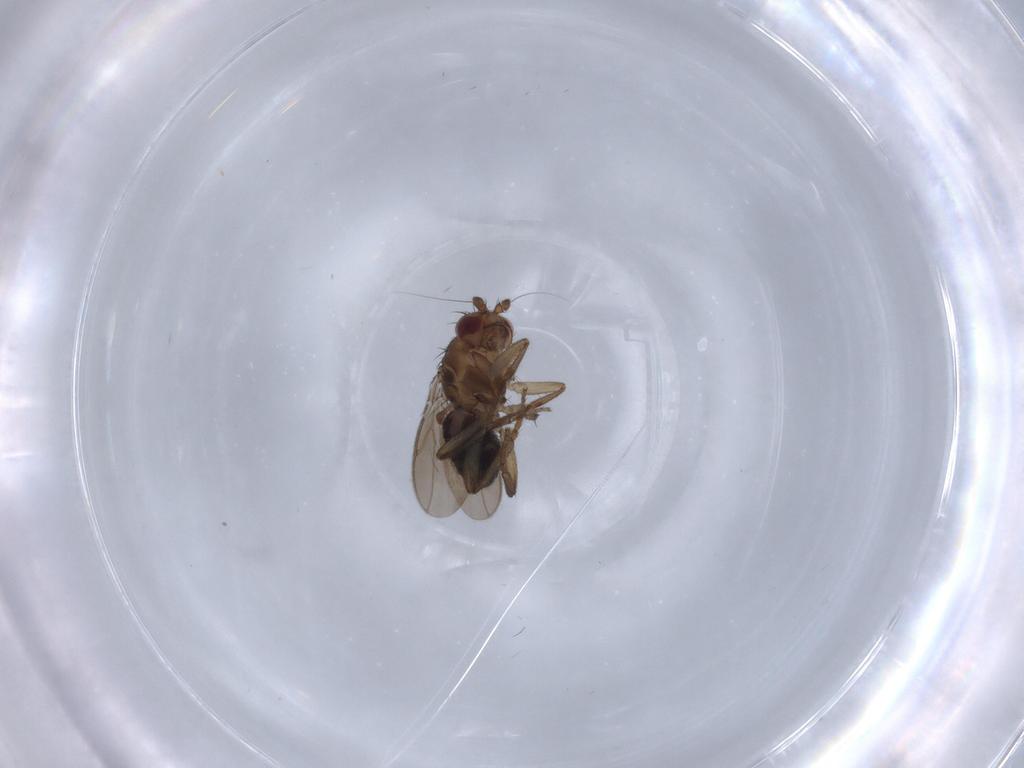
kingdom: Animalia
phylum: Arthropoda
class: Insecta
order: Diptera
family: Sphaeroceridae
